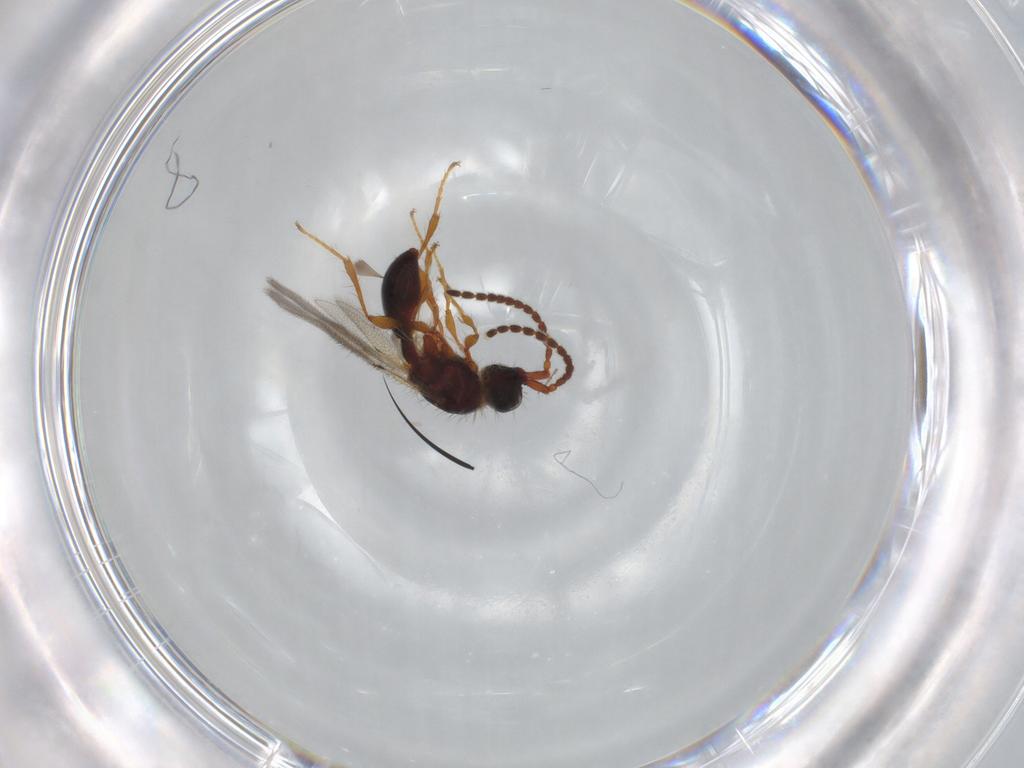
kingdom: Animalia
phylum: Arthropoda
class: Insecta
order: Hymenoptera
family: Diapriidae
